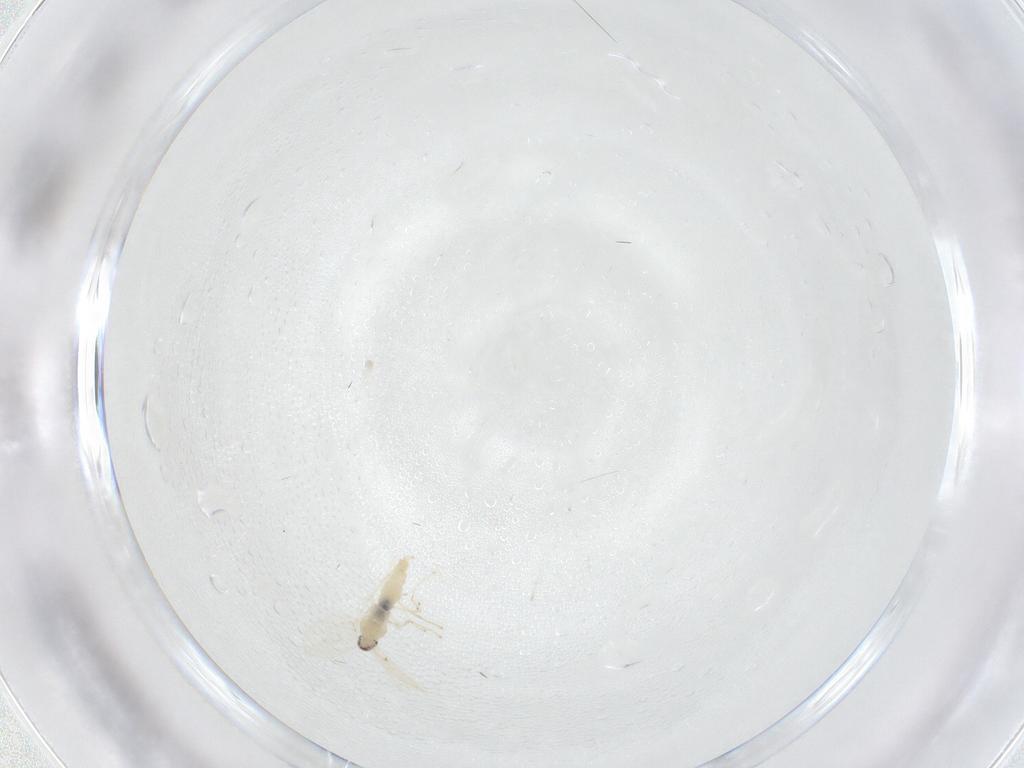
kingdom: Animalia
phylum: Arthropoda
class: Insecta
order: Diptera
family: Cecidomyiidae
